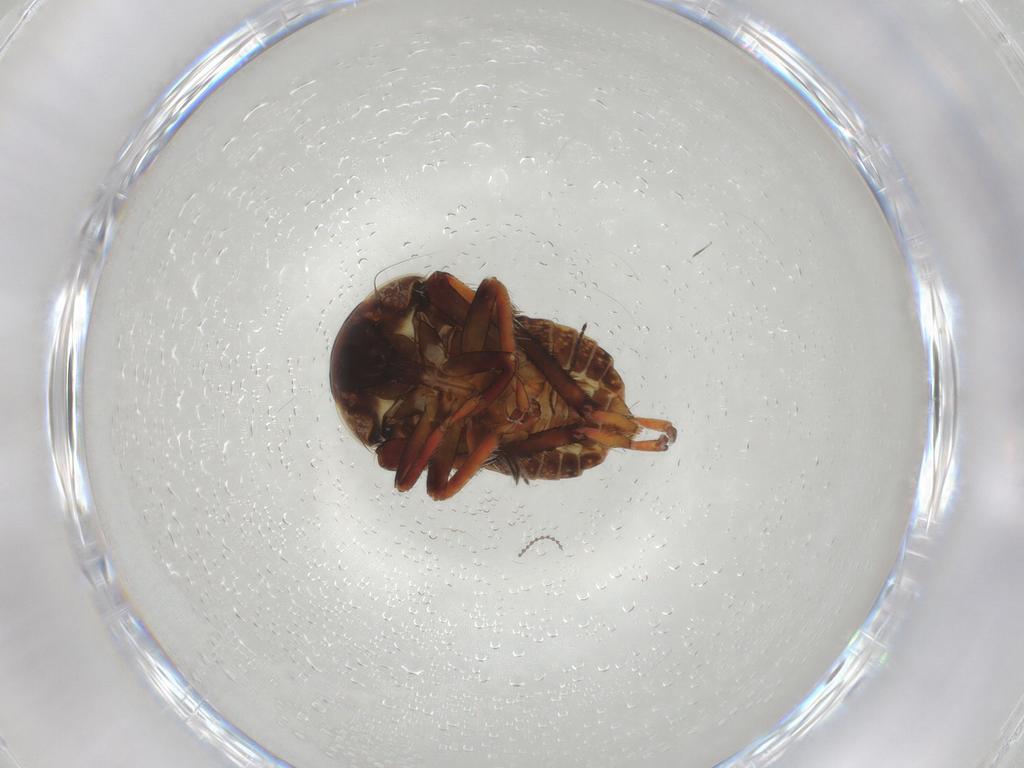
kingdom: Animalia
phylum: Arthropoda
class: Insecta
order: Hemiptera
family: Cicadellidae
